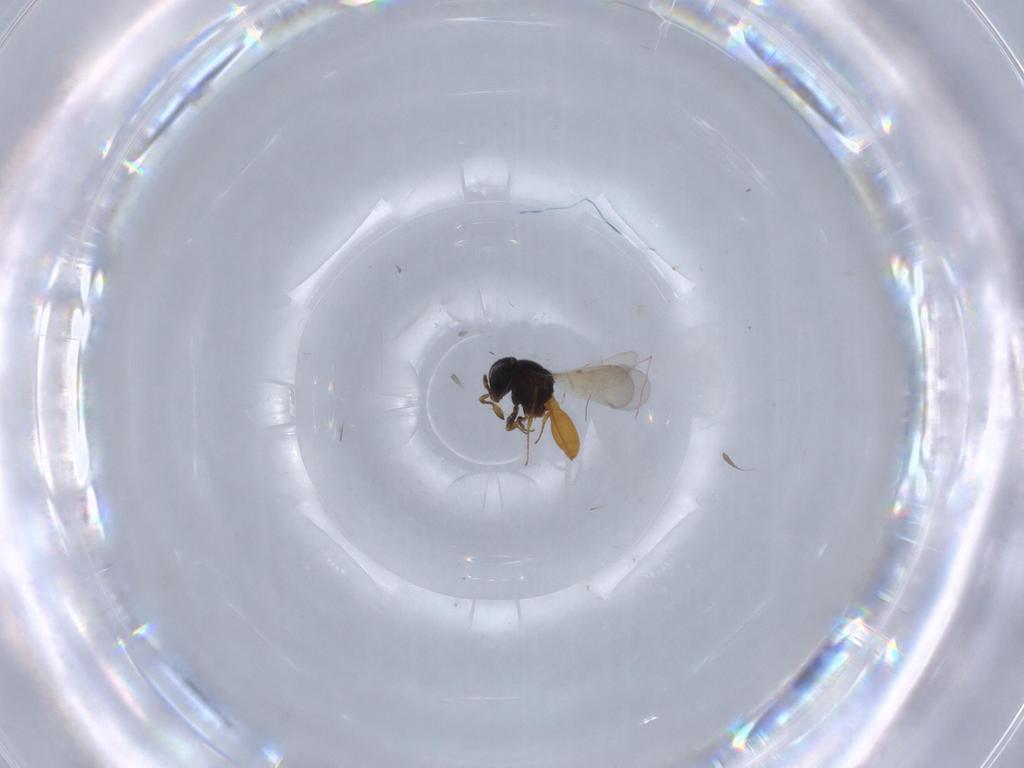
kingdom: Animalia
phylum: Arthropoda
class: Insecta
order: Hymenoptera
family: Scelionidae
